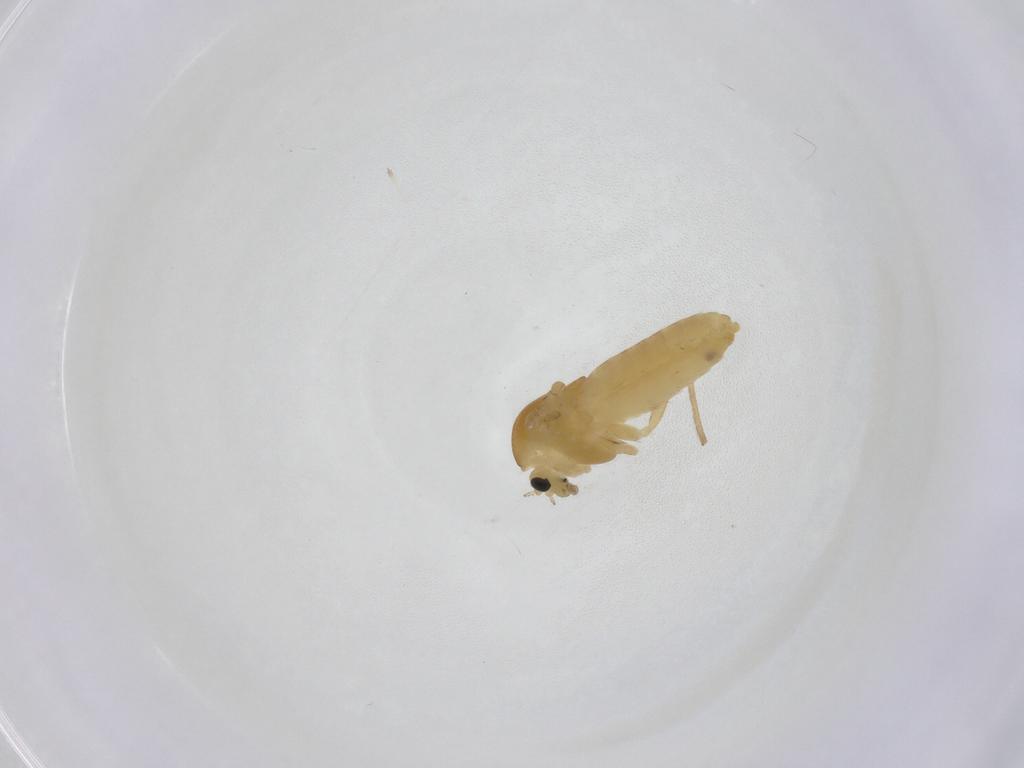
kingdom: Animalia
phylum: Arthropoda
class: Insecta
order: Diptera
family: Chironomidae
